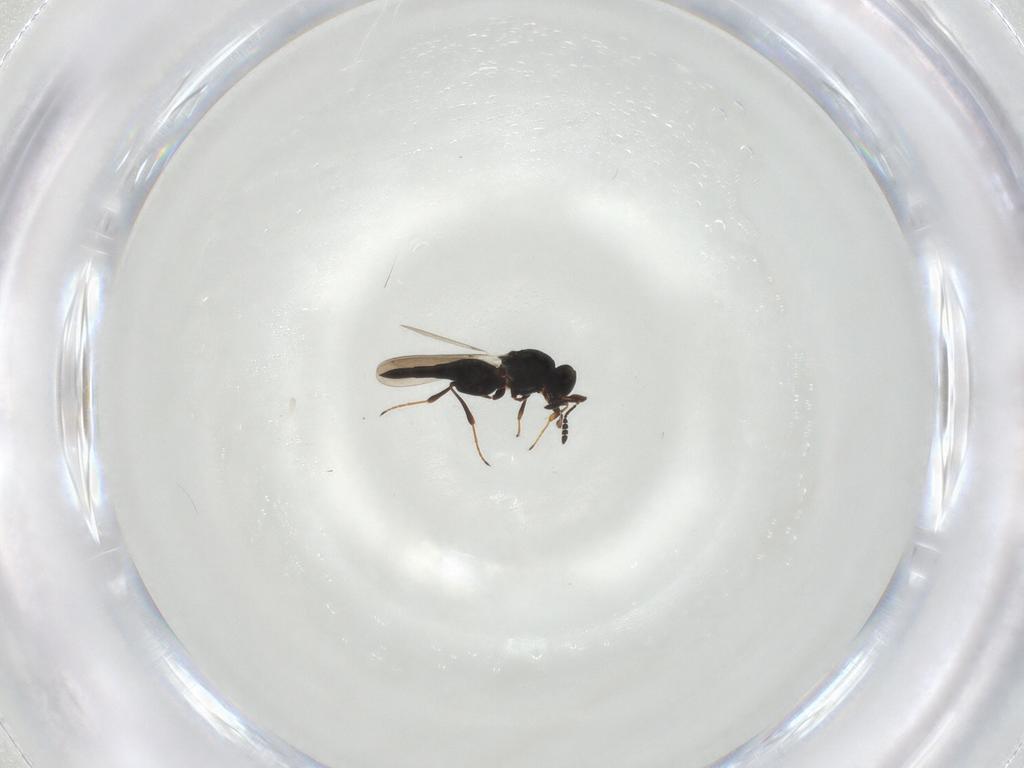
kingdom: Animalia
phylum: Arthropoda
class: Insecta
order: Hymenoptera
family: Platygastridae
